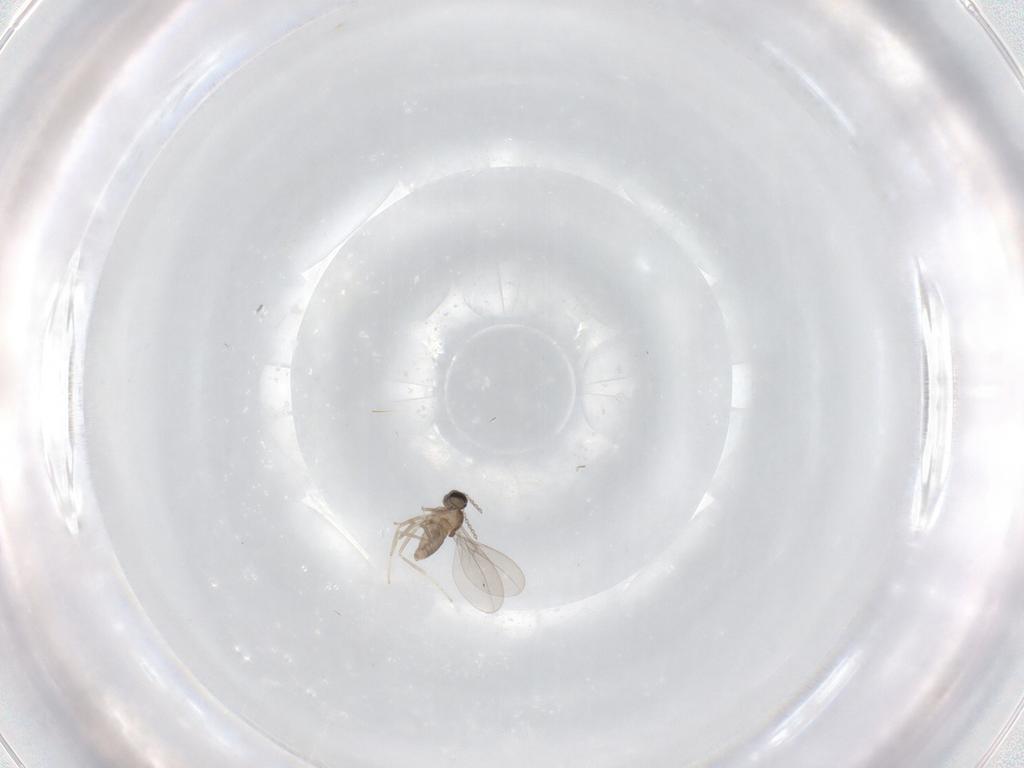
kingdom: Animalia
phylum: Arthropoda
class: Insecta
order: Diptera
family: Cecidomyiidae
